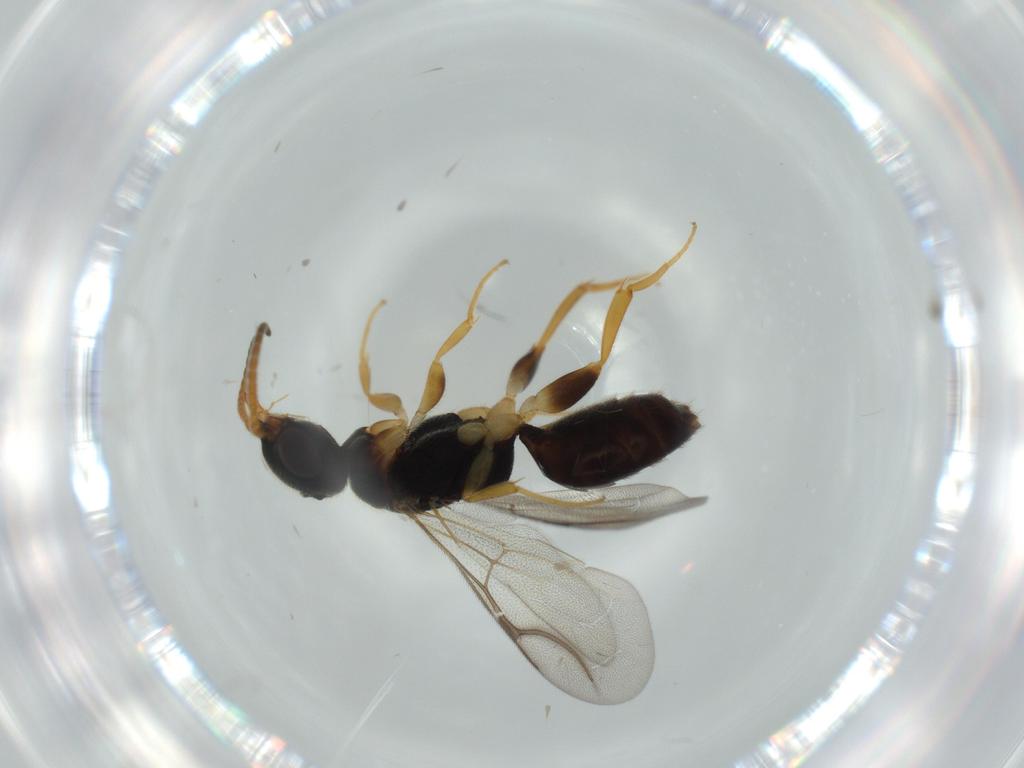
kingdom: Animalia
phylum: Arthropoda
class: Insecta
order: Hymenoptera
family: Bethylidae
